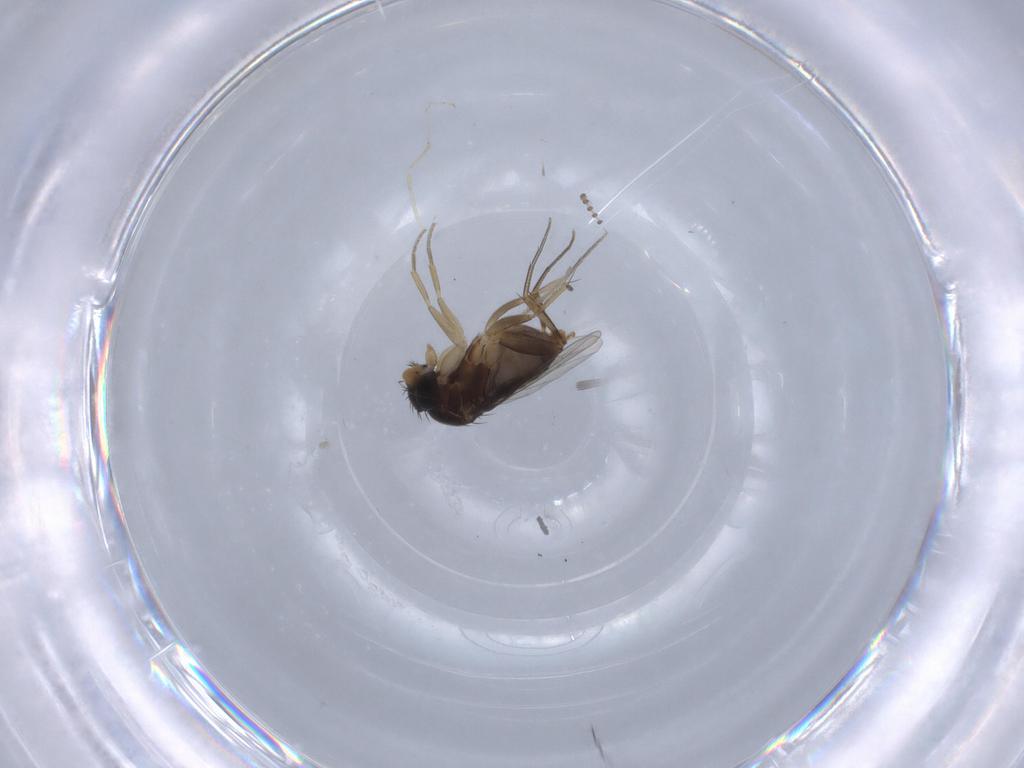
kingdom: Animalia
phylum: Arthropoda
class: Insecta
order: Diptera
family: Phoridae
